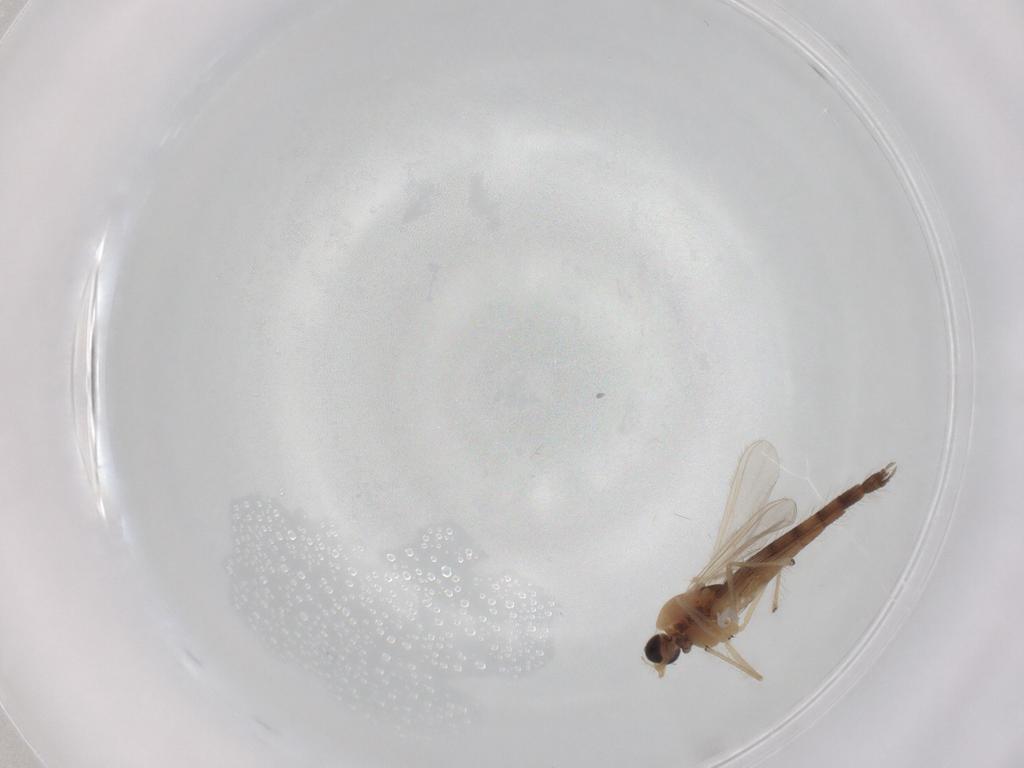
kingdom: Animalia
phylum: Arthropoda
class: Insecta
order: Diptera
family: Chironomidae
